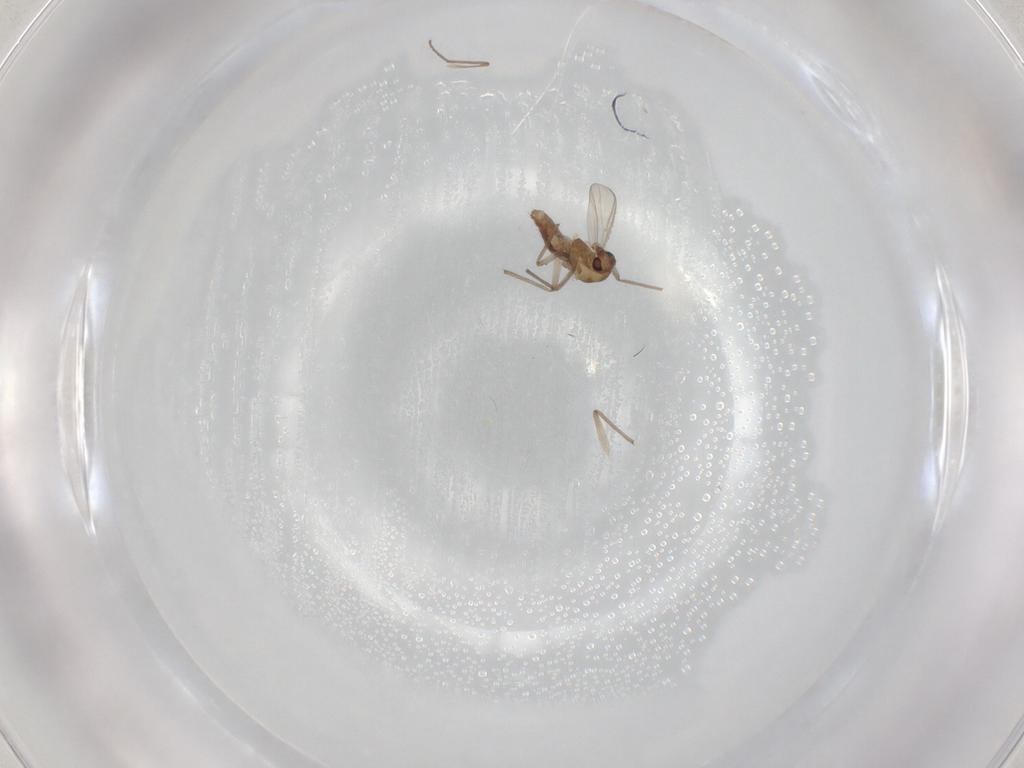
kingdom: Animalia
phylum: Arthropoda
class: Insecta
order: Diptera
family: Chironomidae
